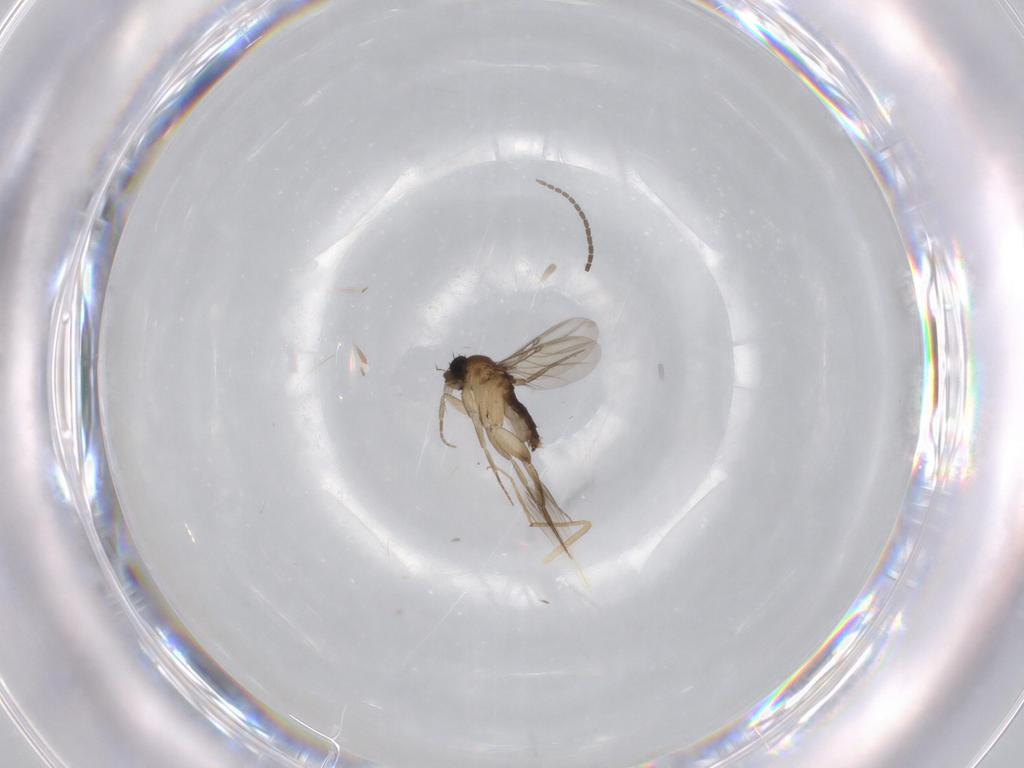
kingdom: Animalia
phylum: Arthropoda
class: Insecta
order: Diptera
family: Phoridae
